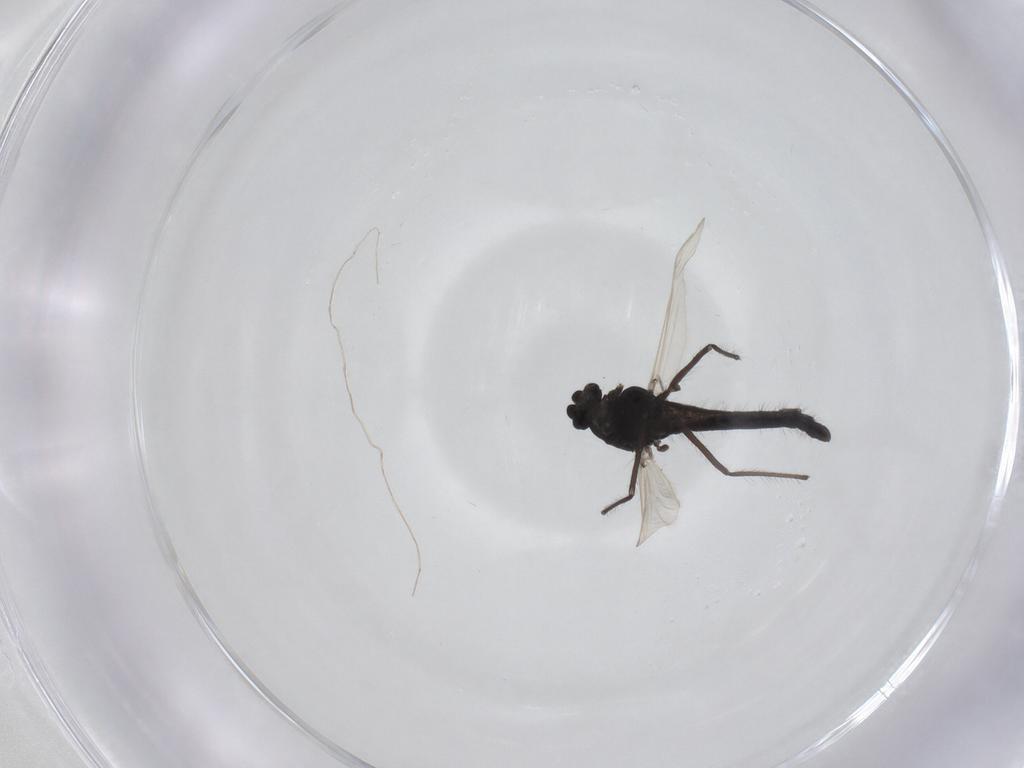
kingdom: Animalia
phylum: Arthropoda
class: Insecta
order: Diptera
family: Chironomidae
